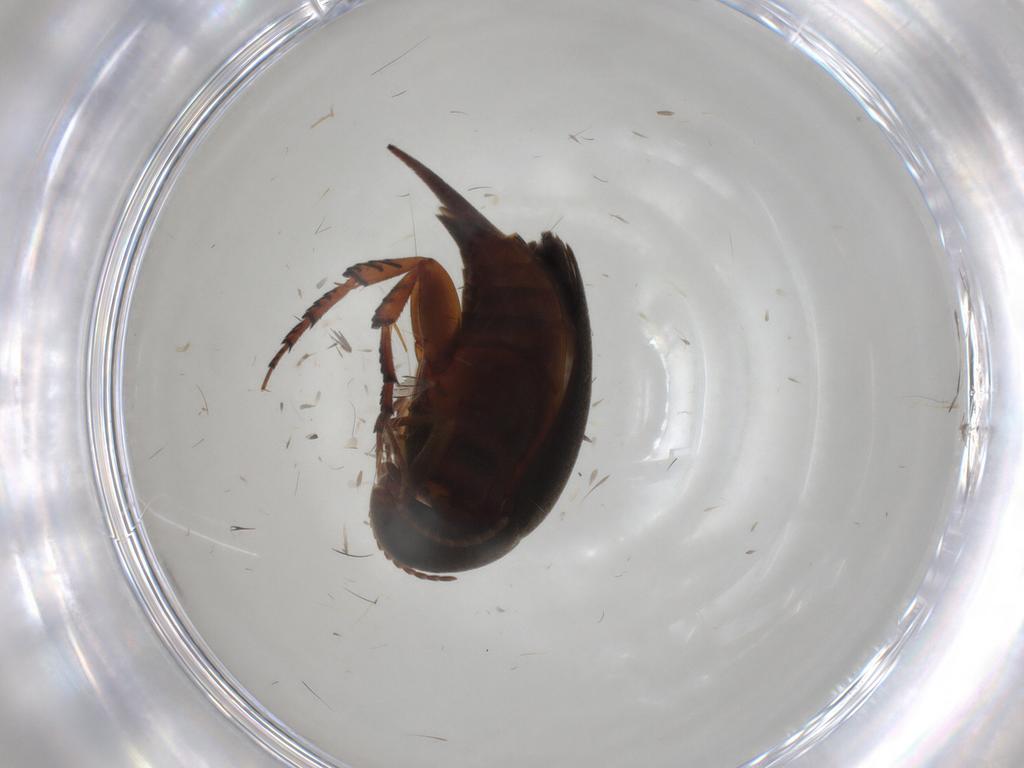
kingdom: Animalia
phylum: Arthropoda
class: Insecta
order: Coleoptera
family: Mordellidae
